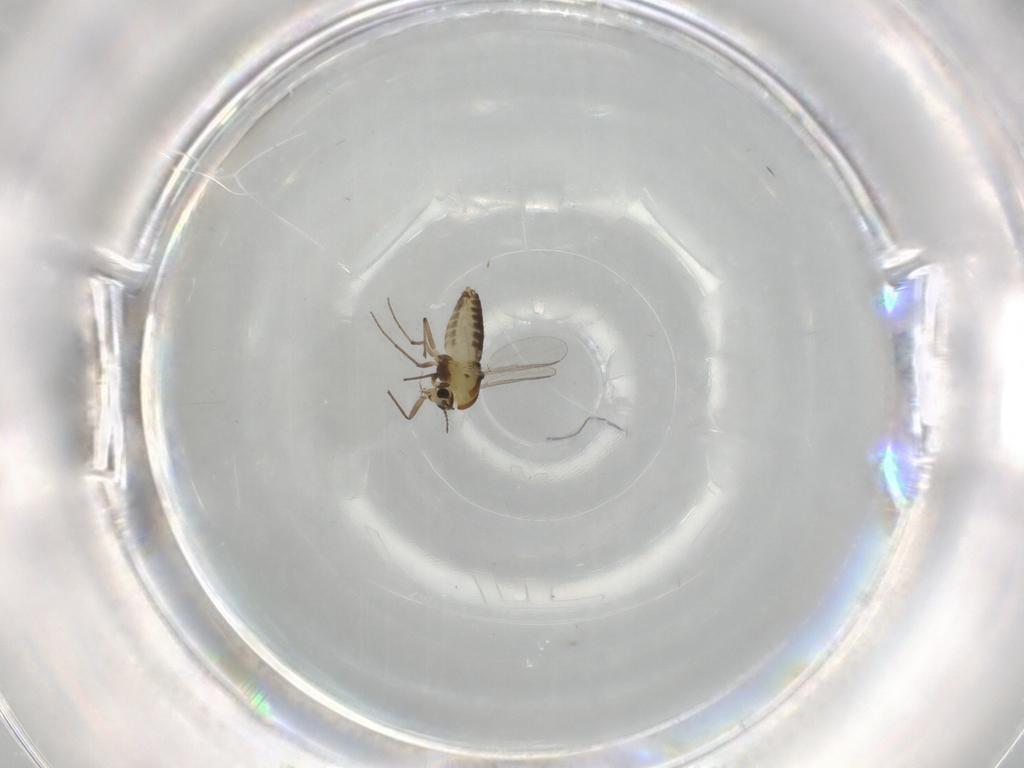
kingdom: Animalia
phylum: Arthropoda
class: Insecta
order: Diptera
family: Chironomidae
